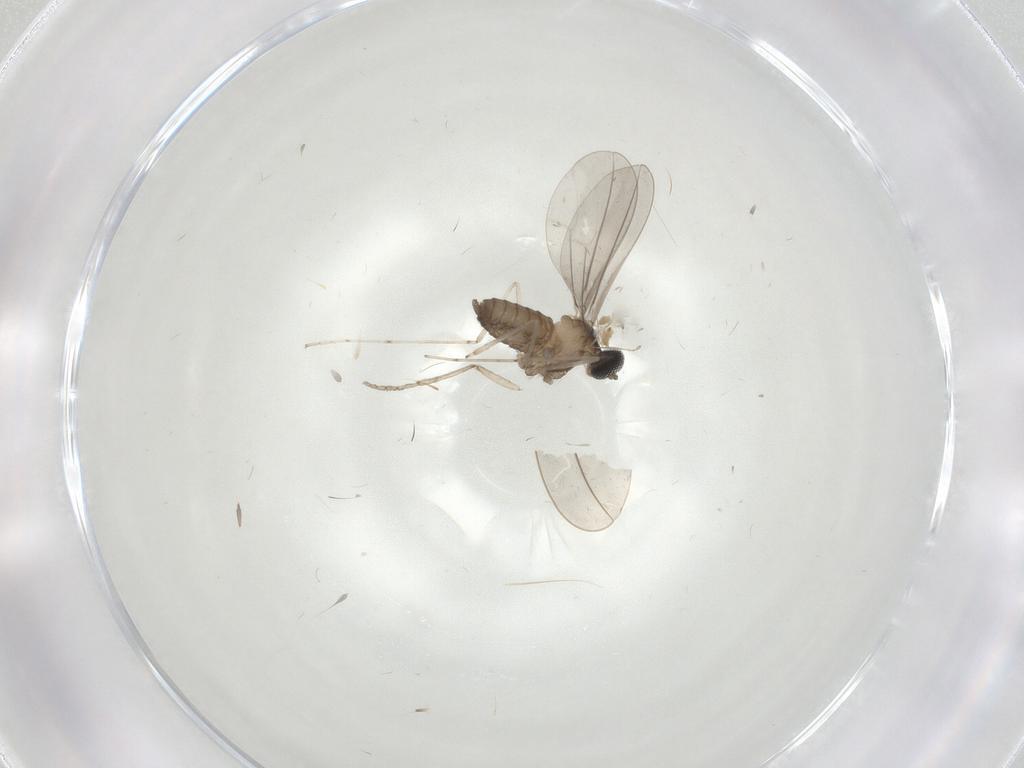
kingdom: Animalia
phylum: Arthropoda
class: Insecta
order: Diptera
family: Cecidomyiidae
